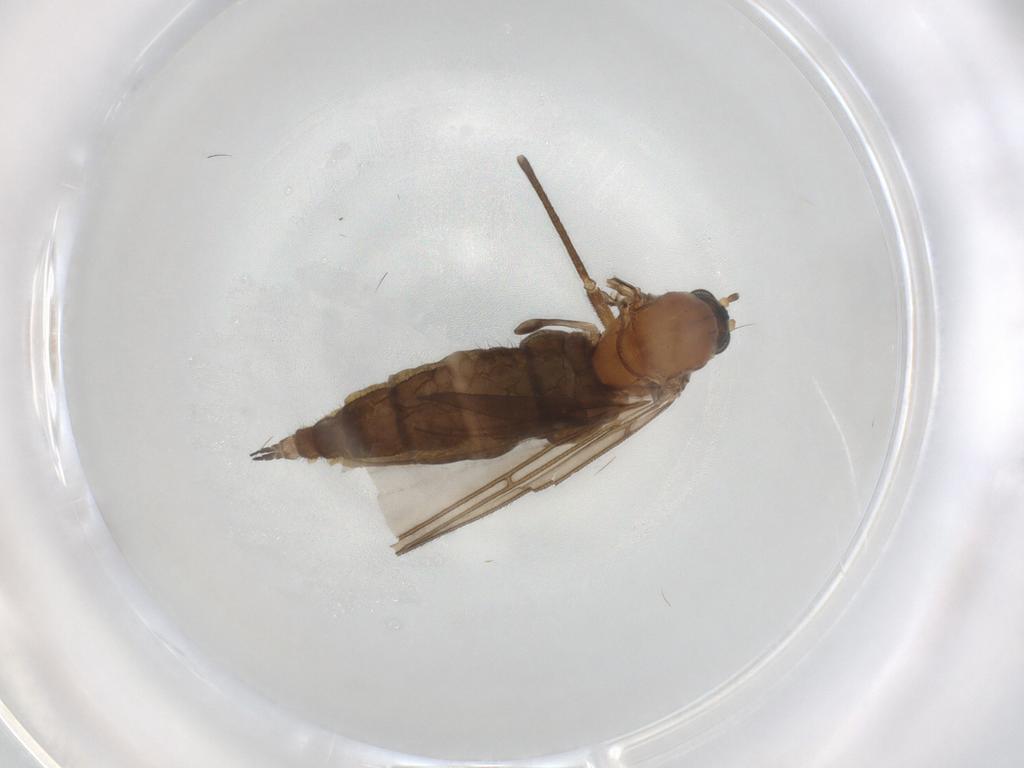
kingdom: Animalia
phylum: Arthropoda
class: Insecta
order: Diptera
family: Sciaridae
